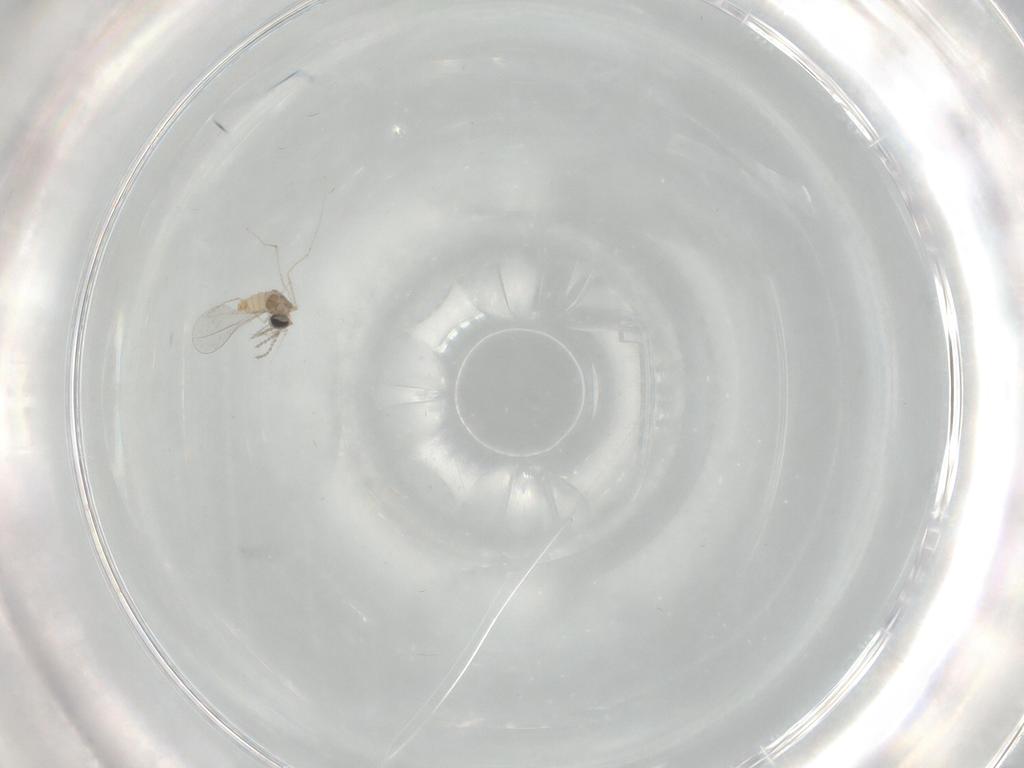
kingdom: Animalia
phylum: Arthropoda
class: Insecta
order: Diptera
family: Cecidomyiidae
